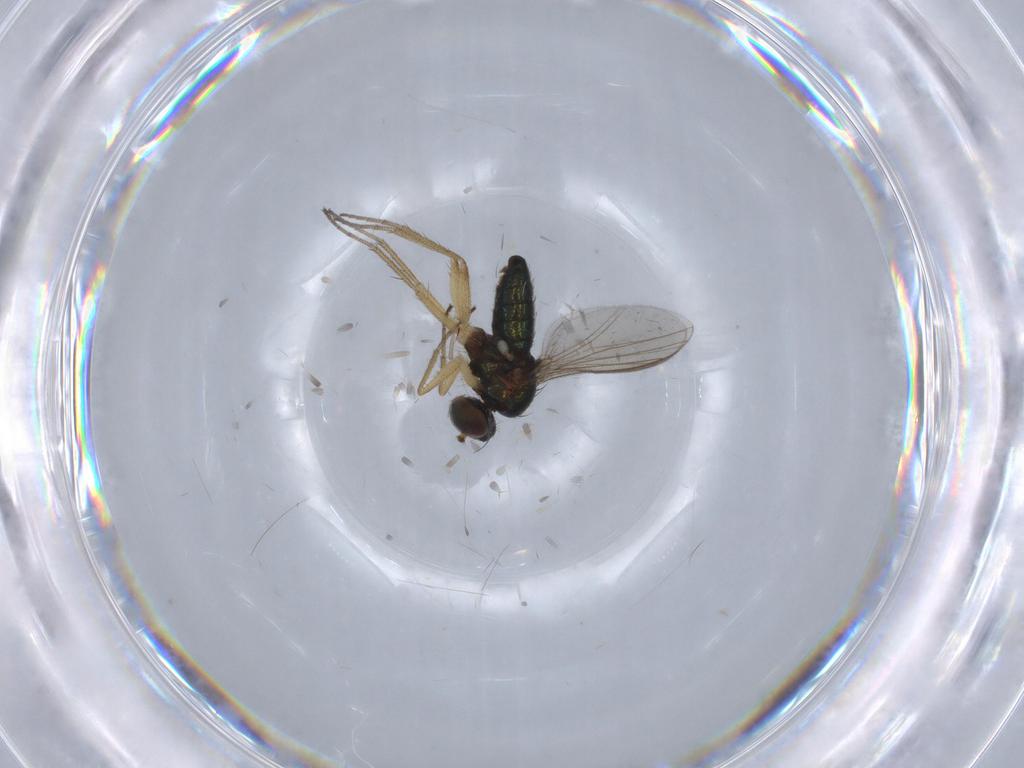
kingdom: Animalia
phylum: Arthropoda
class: Insecta
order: Diptera
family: Dolichopodidae
